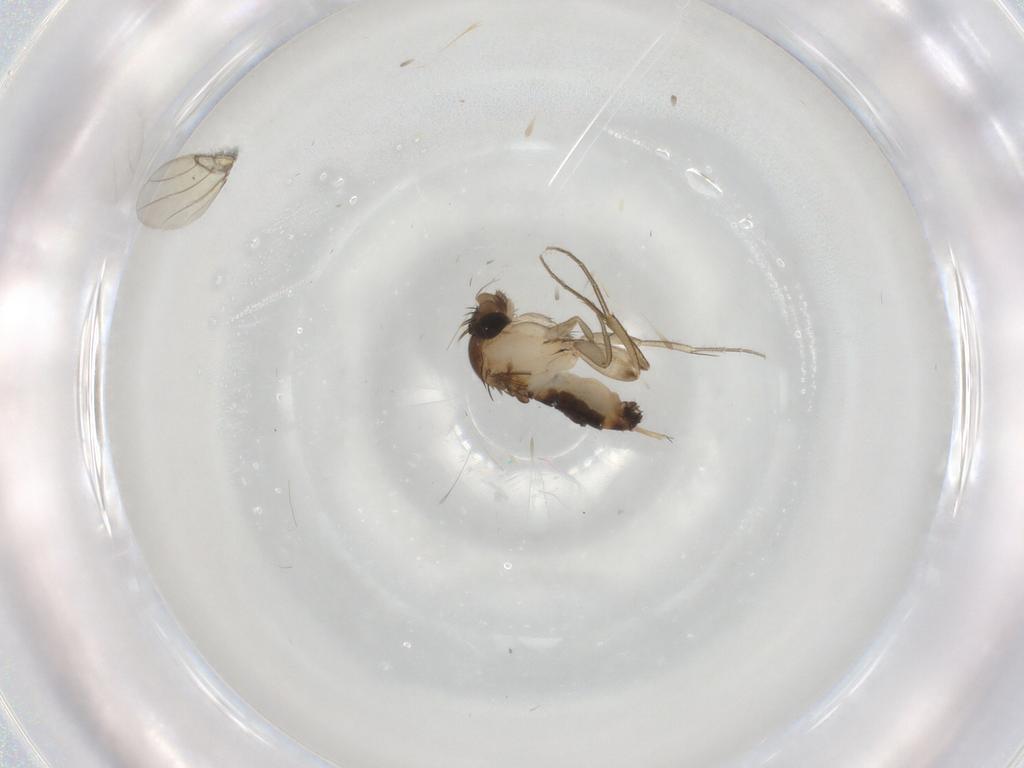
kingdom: Animalia
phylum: Arthropoda
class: Insecta
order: Diptera
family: Phoridae
